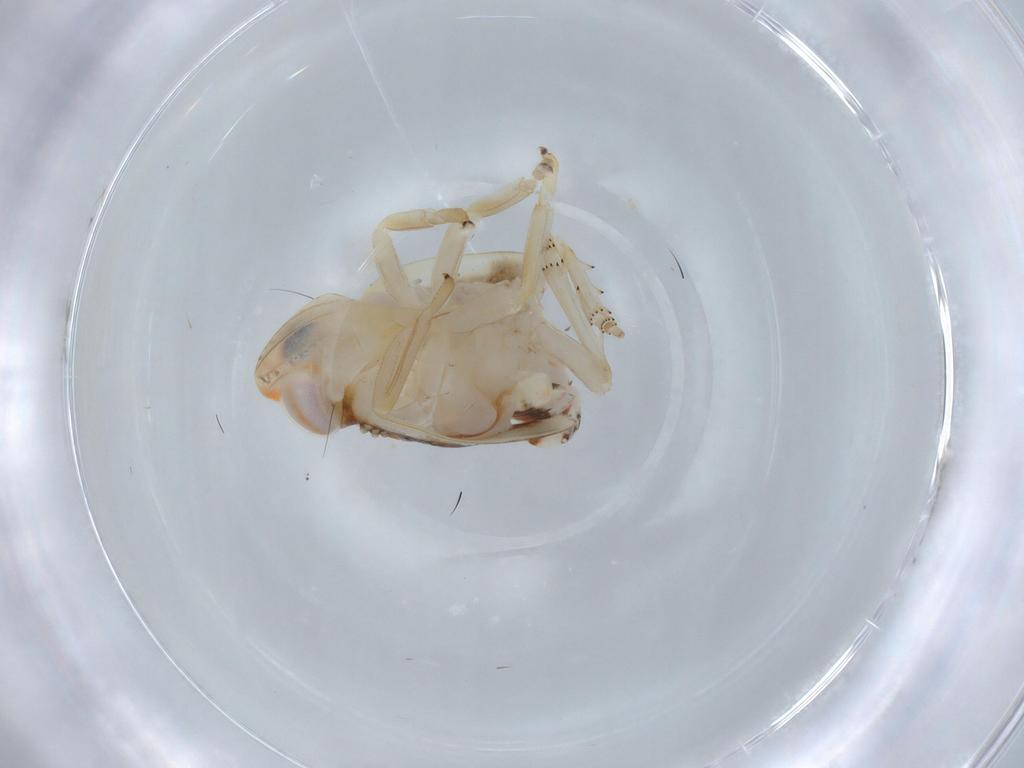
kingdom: Animalia
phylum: Arthropoda
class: Insecta
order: Hemiptera
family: Nogodinidae
